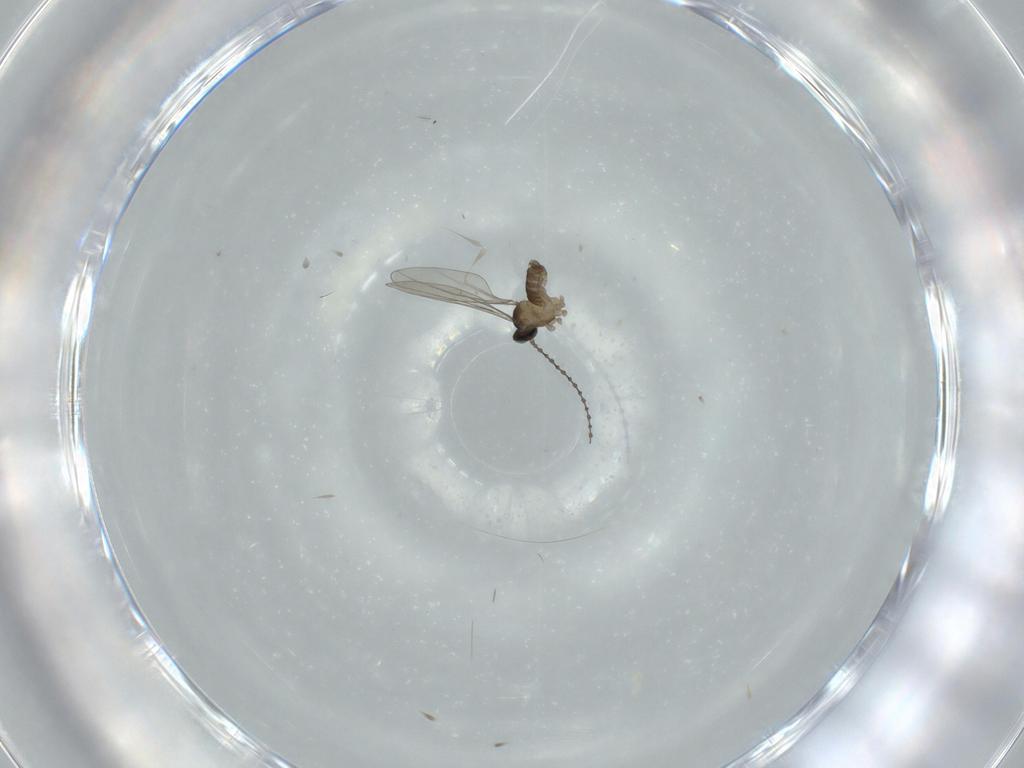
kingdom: Animalia
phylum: Arthropoda
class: Insecta
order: Diptera
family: Cecidomyiidae
